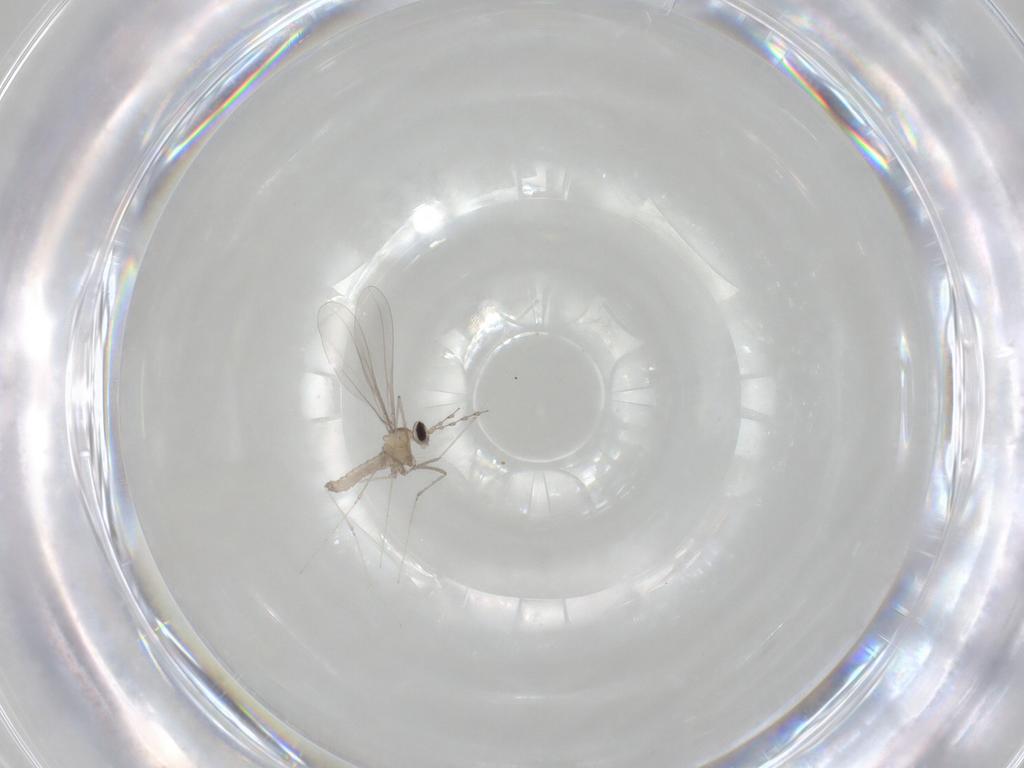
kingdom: Animalia
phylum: Arthropoda
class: Insecta
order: Diptera
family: Cecidomyiidae
